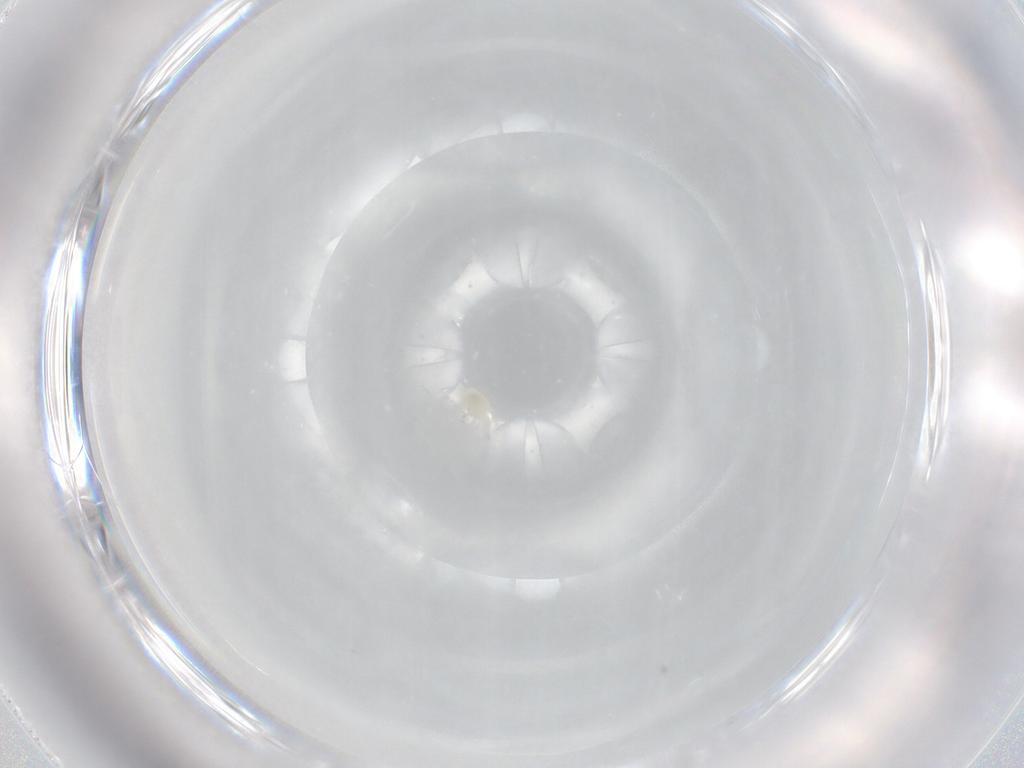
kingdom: Animalia
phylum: Arthropoda
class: Arachnida
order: Trombidiformes
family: Bdellidae
